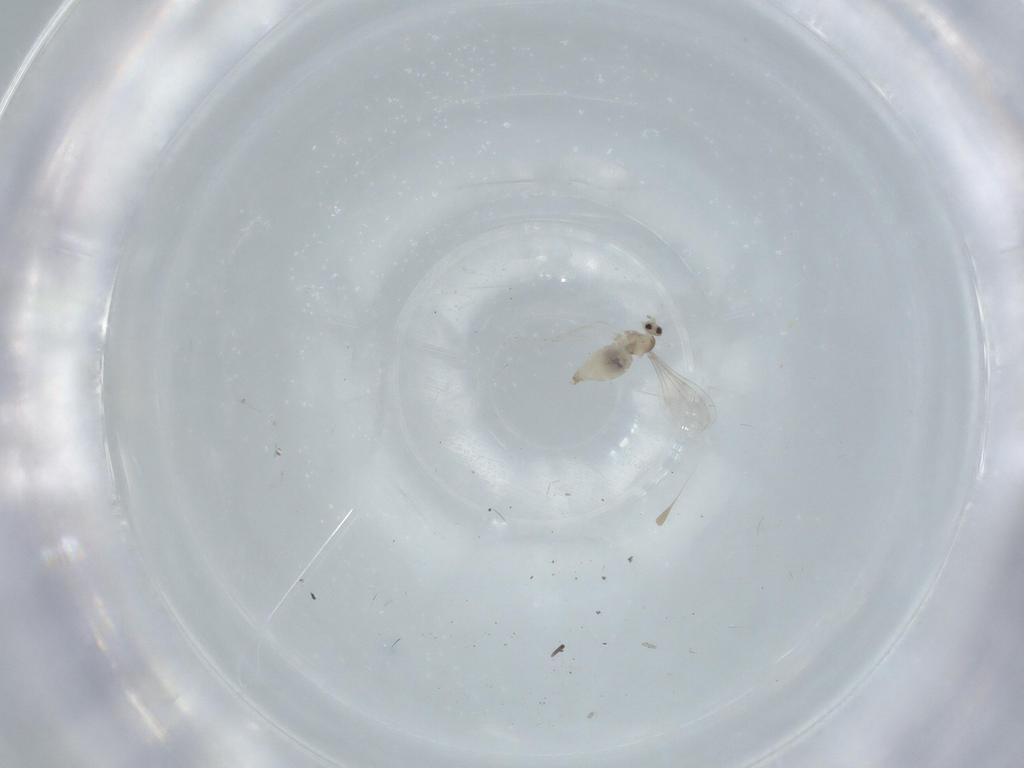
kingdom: Animalia
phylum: Arthropoda
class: Insecta
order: Diptera
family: Cecidomyiidae
